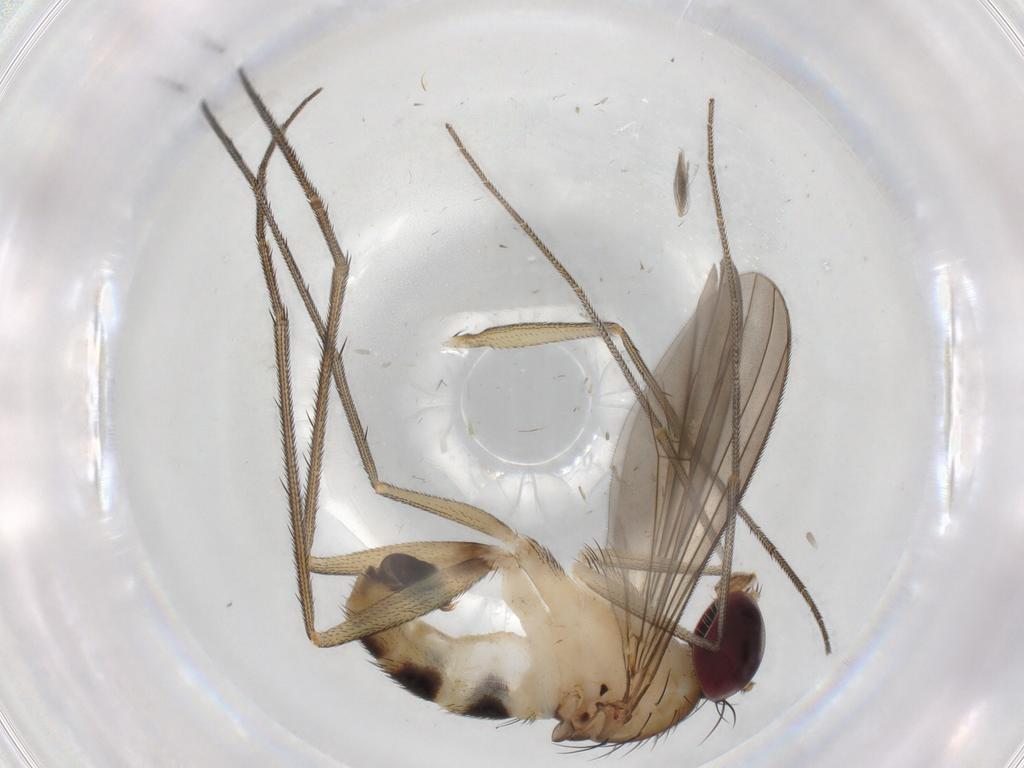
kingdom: Animalia
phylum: Arthropoda
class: Insecta
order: Diptera
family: Dolichopodidae
